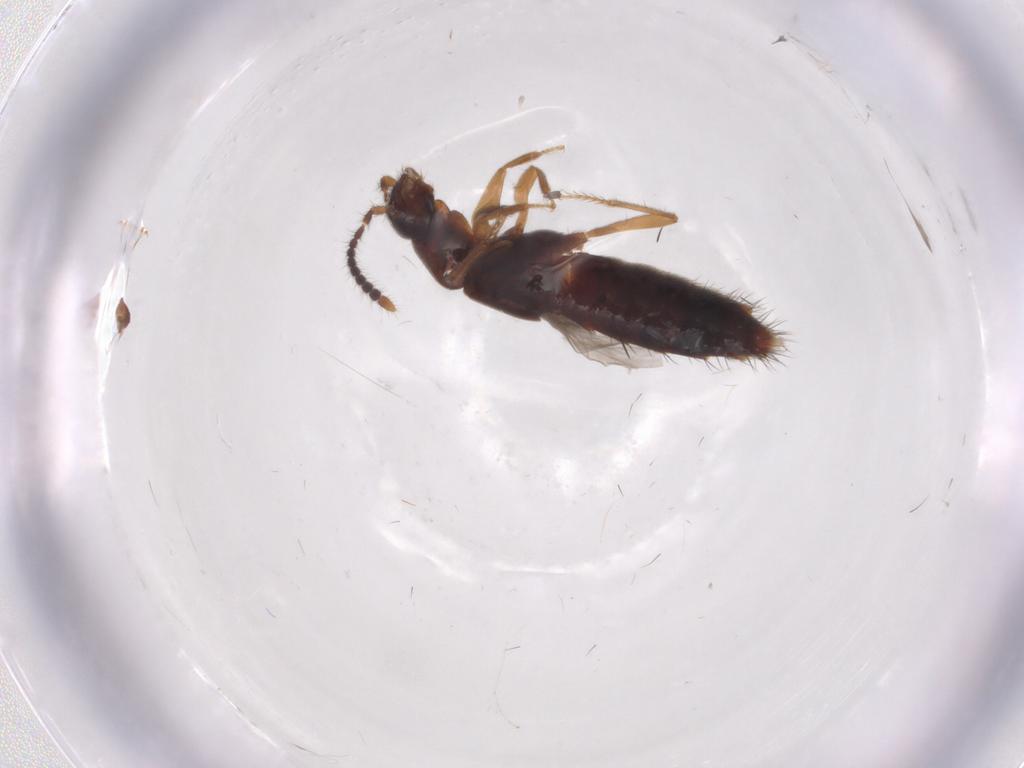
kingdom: Animalia
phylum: Arthropoda
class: Insecta
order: Coleoptera
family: Staphylinidae
